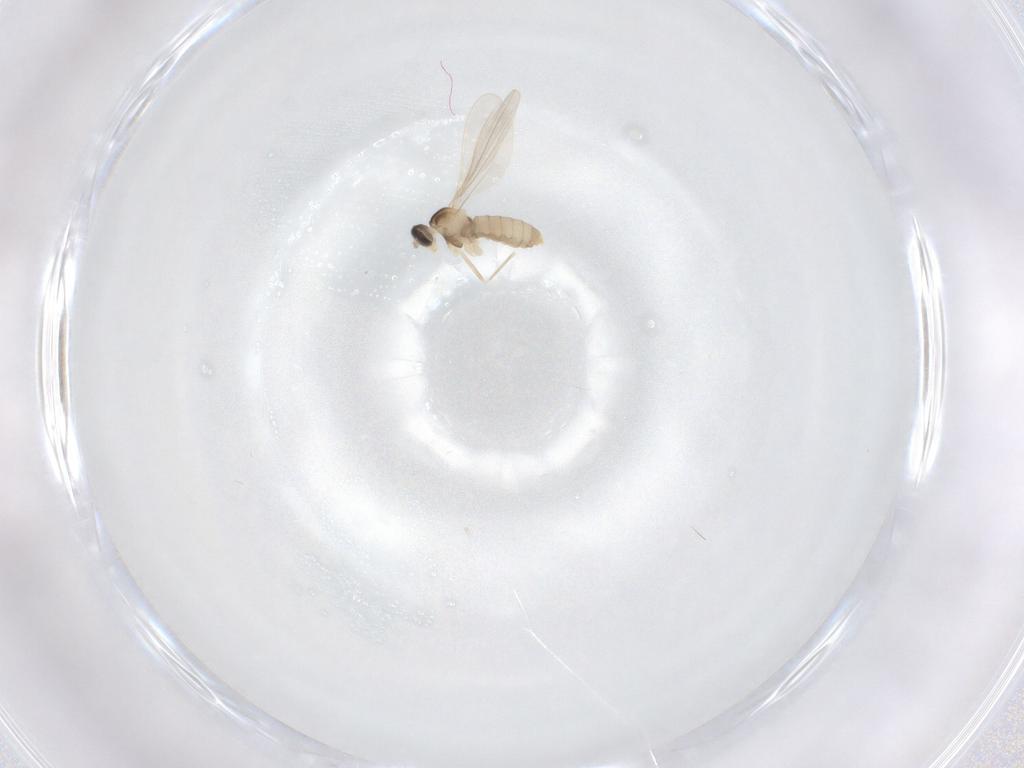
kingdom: Animalia
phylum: Arthropoda
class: Insecta
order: Diptera
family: Cecidomyiidae
